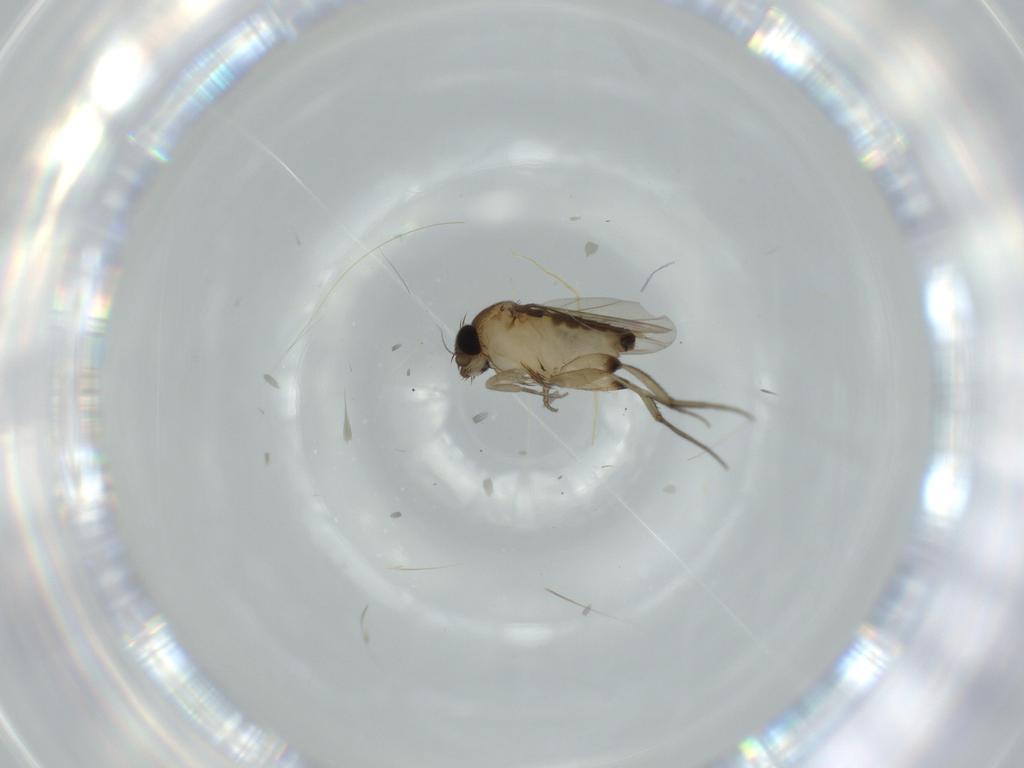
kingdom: Animalia
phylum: Arthropoda
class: Insecta
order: Diptera
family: Phoridae
